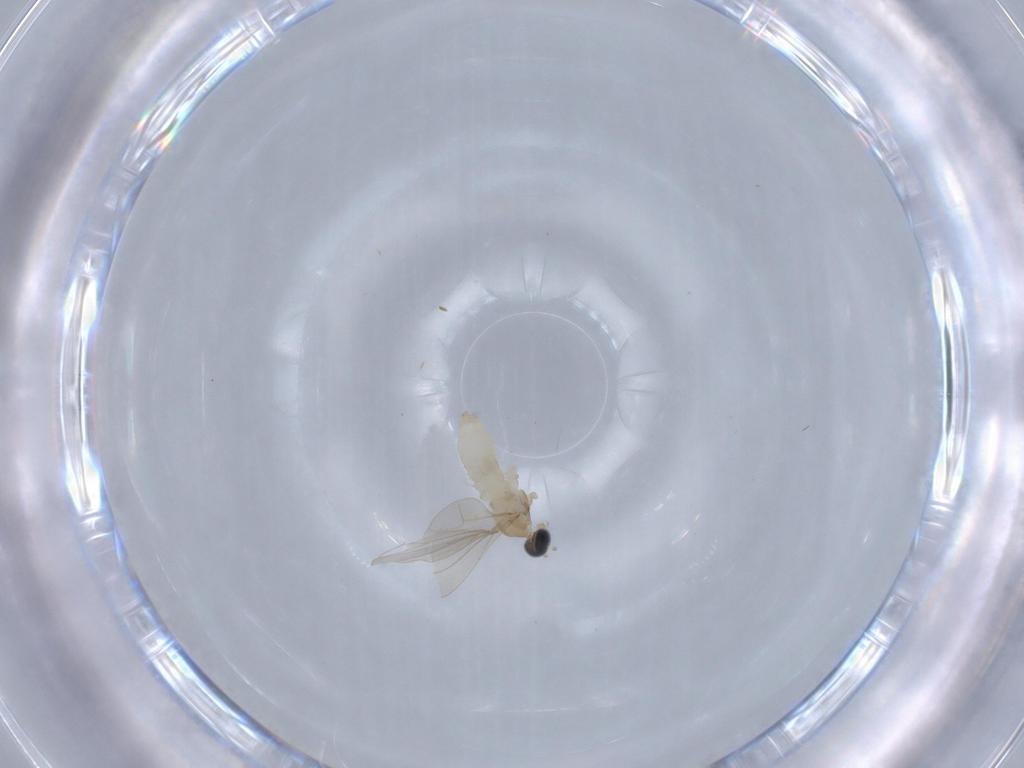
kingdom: Animalia
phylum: Arthropoda
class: Insecta
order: Diptera
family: Cecidomyiidae
